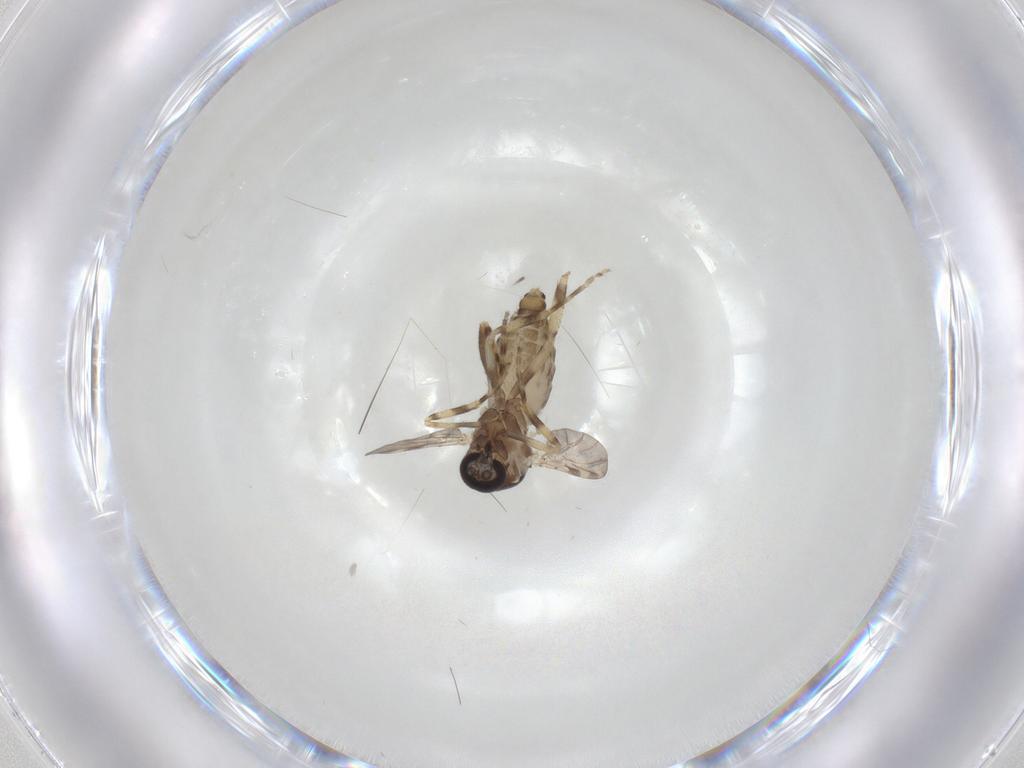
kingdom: Animalia
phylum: Arthropoda
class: Insecta
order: Diptera
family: Ceratopogonidae
